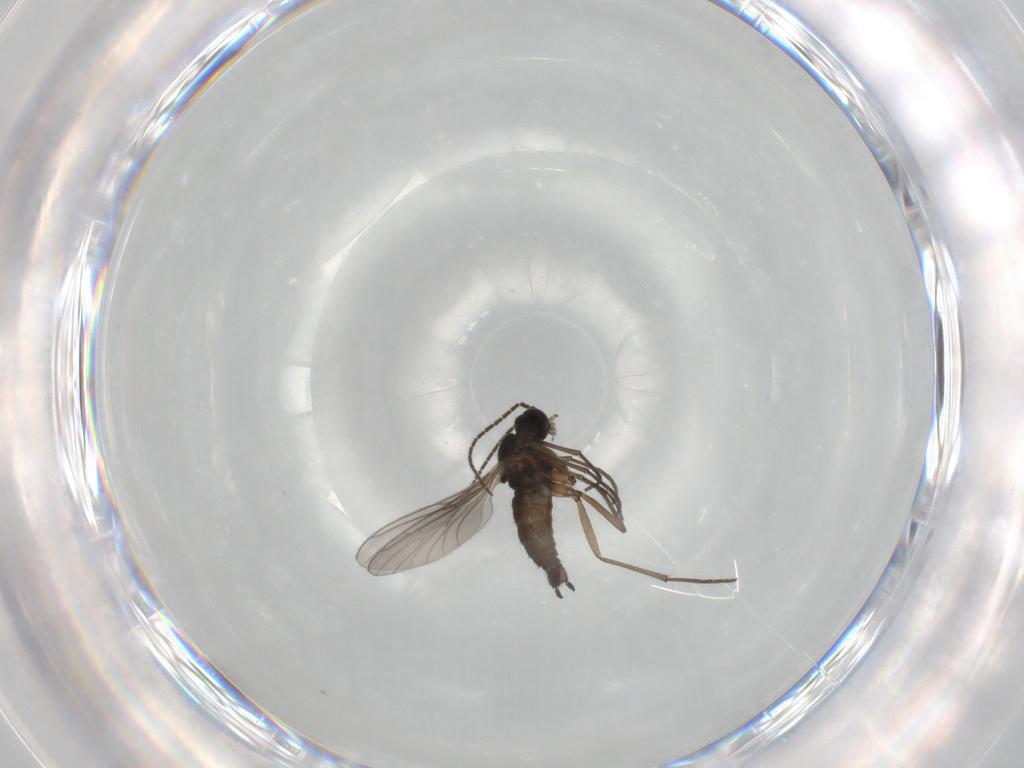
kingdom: Animalia
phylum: Arthropoda
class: Insecta
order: Diptera
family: Sciaridae
